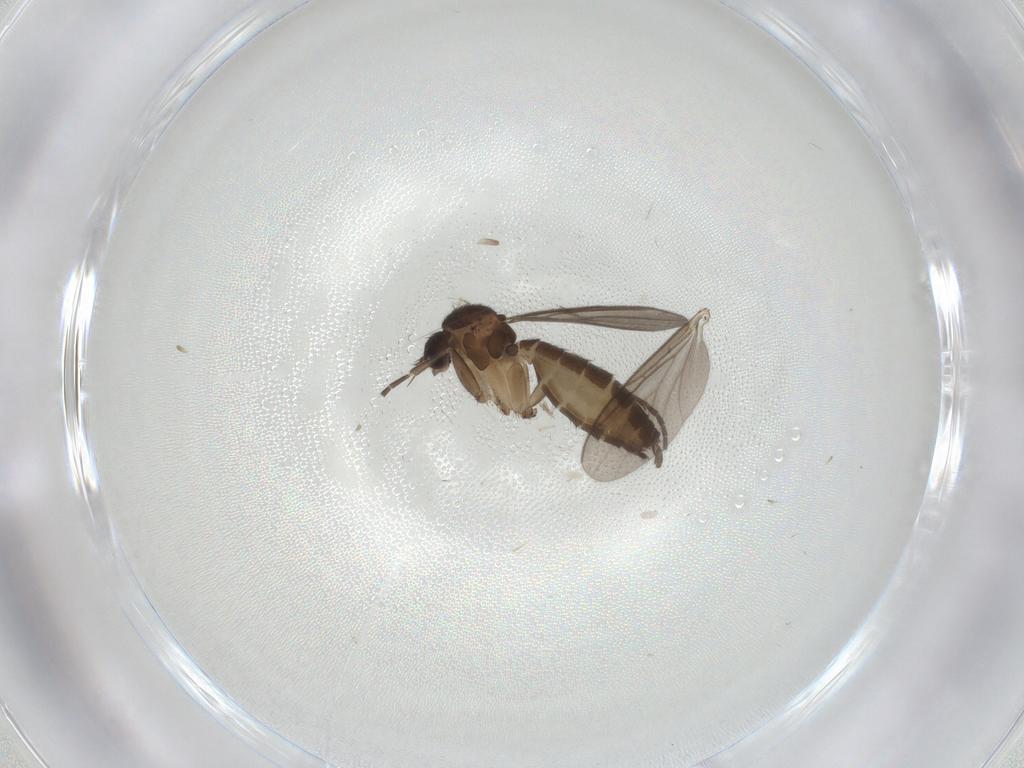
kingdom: Animalia
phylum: Arthropoda
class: Insecta
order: Diptera
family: Mycetophilidae
